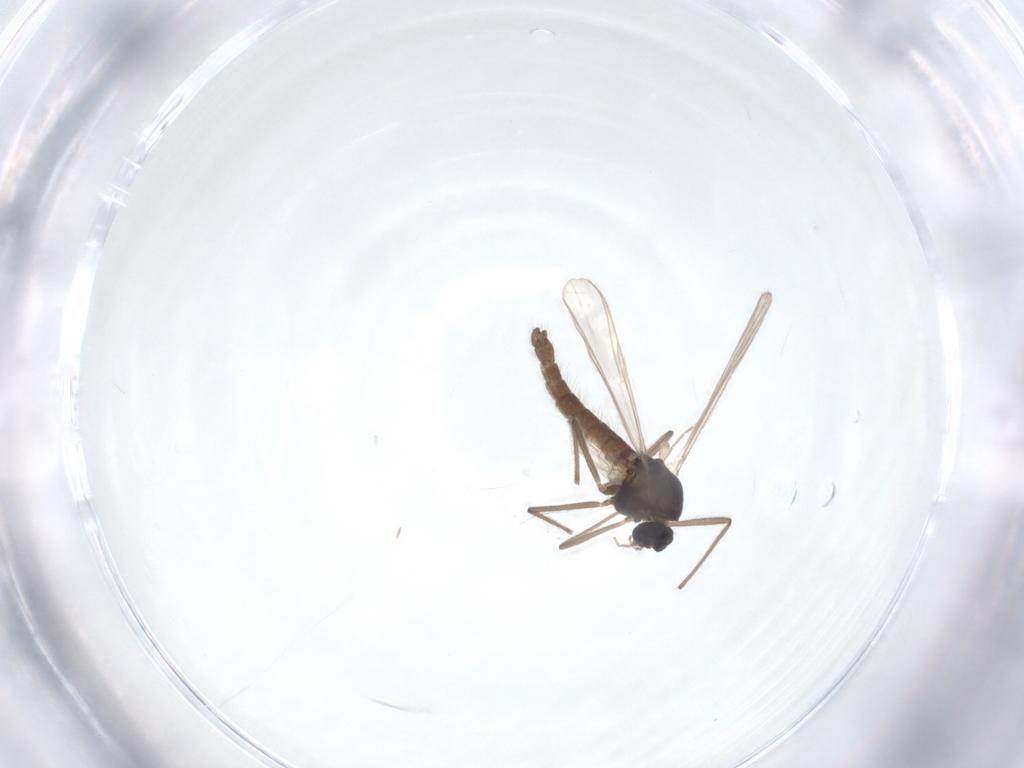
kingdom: Animalia
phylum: Arthropoda
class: Insecta
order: Diptera
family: Chironomidae
